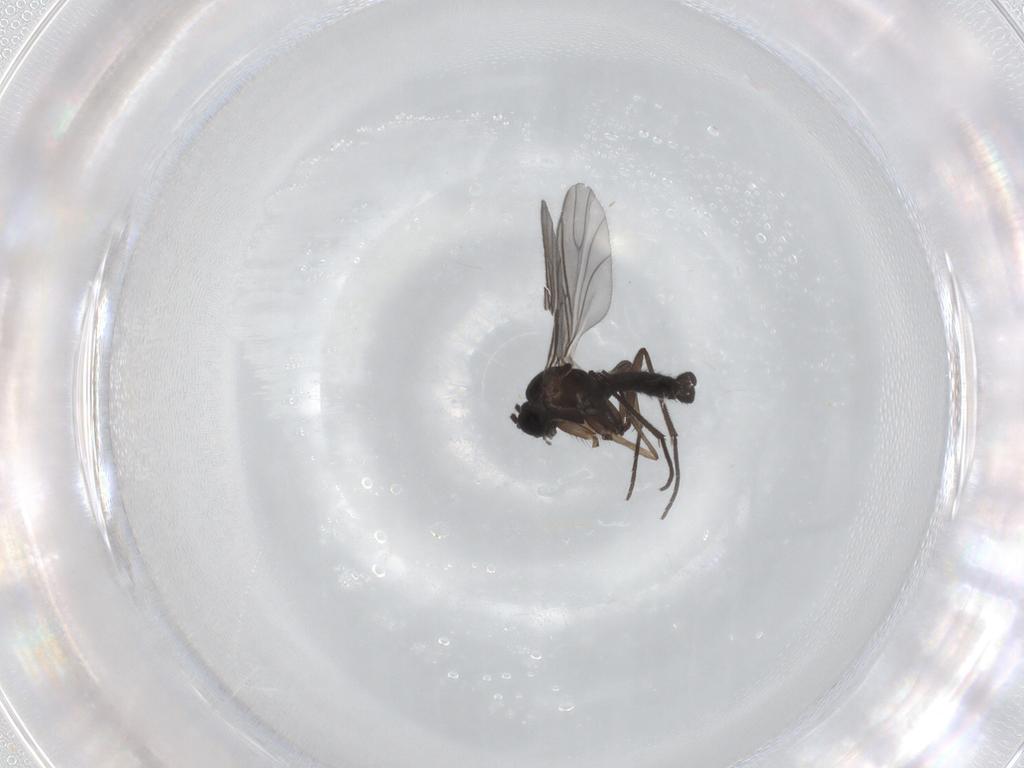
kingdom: Animalia
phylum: Arthropoda
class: Insecta
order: Diptera
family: Sciaridae
